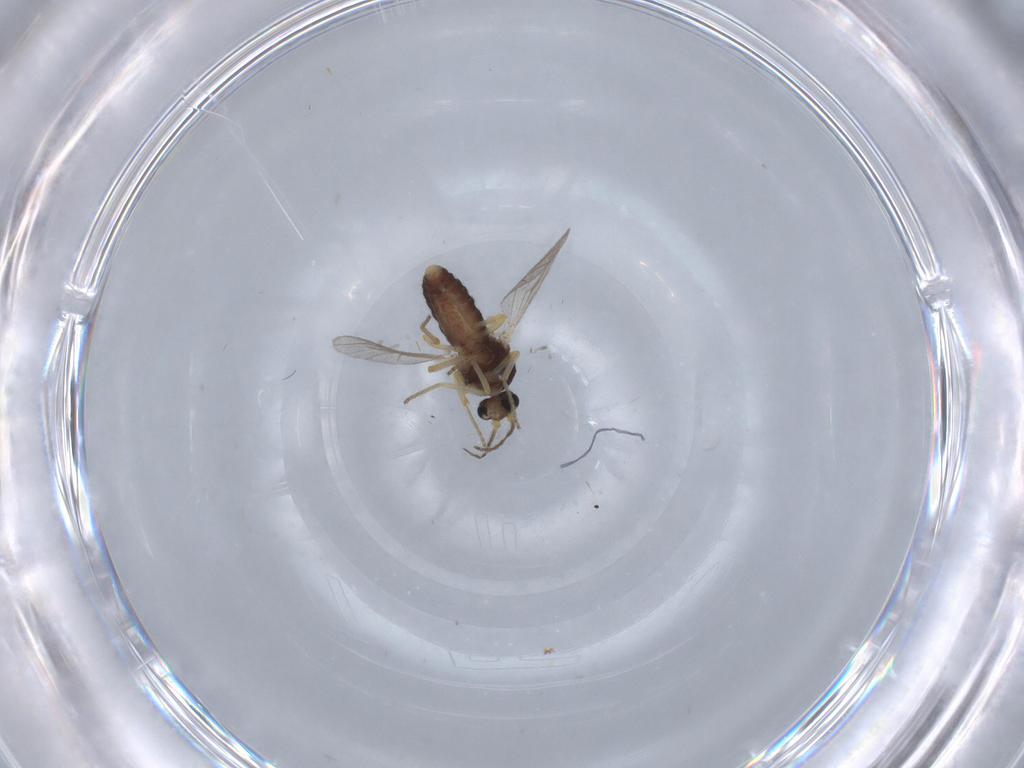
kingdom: Animalia
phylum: Arthropoda
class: Insecta
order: Diptera
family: Ceratopogonidae
